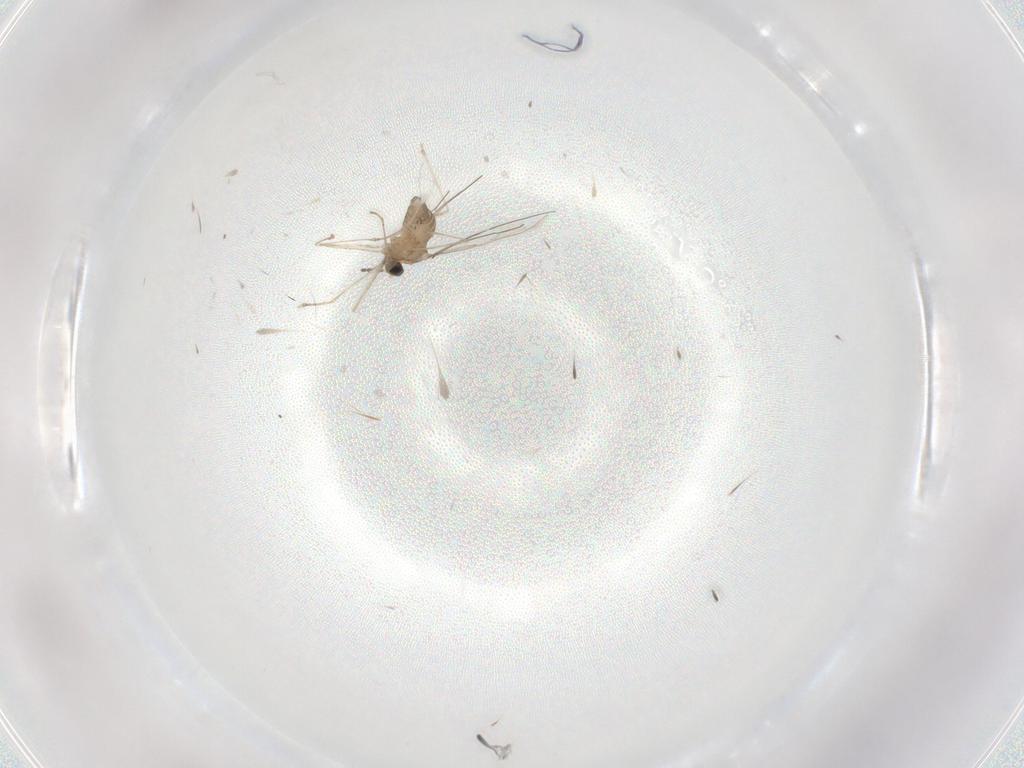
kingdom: Animalia
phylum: Arthropoda
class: Insecta
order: Diptera
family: Cecidomyiidae
